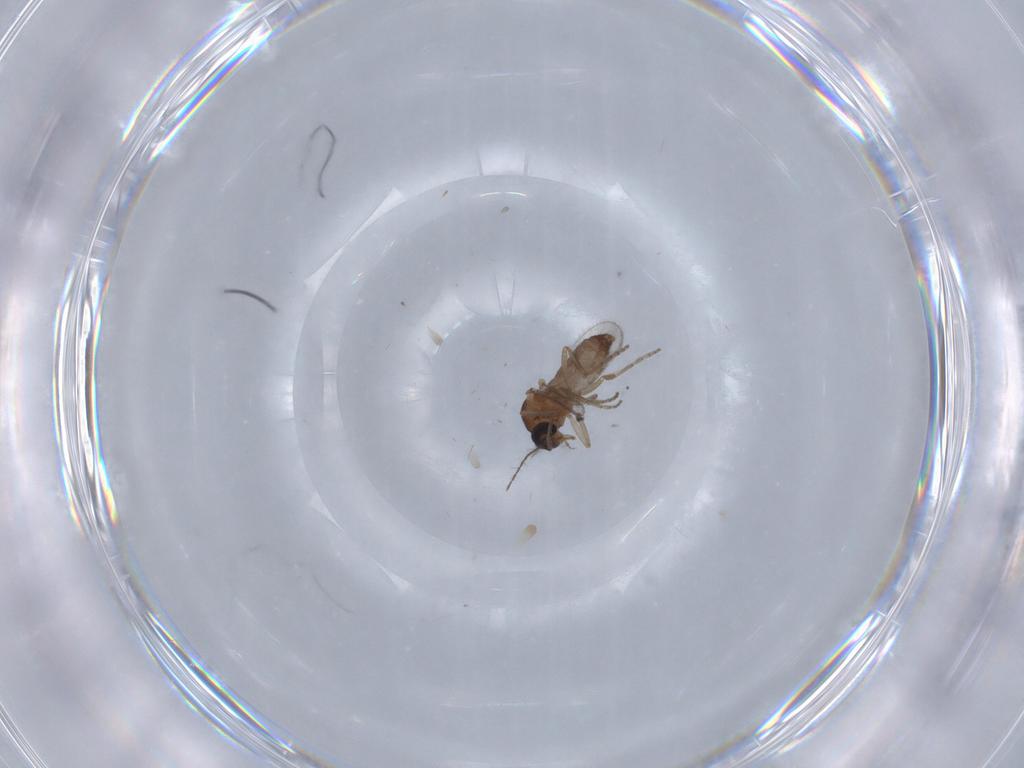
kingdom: Animalia
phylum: Arthropoda
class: Insecta
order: Diptera
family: Ceratopogonidae
